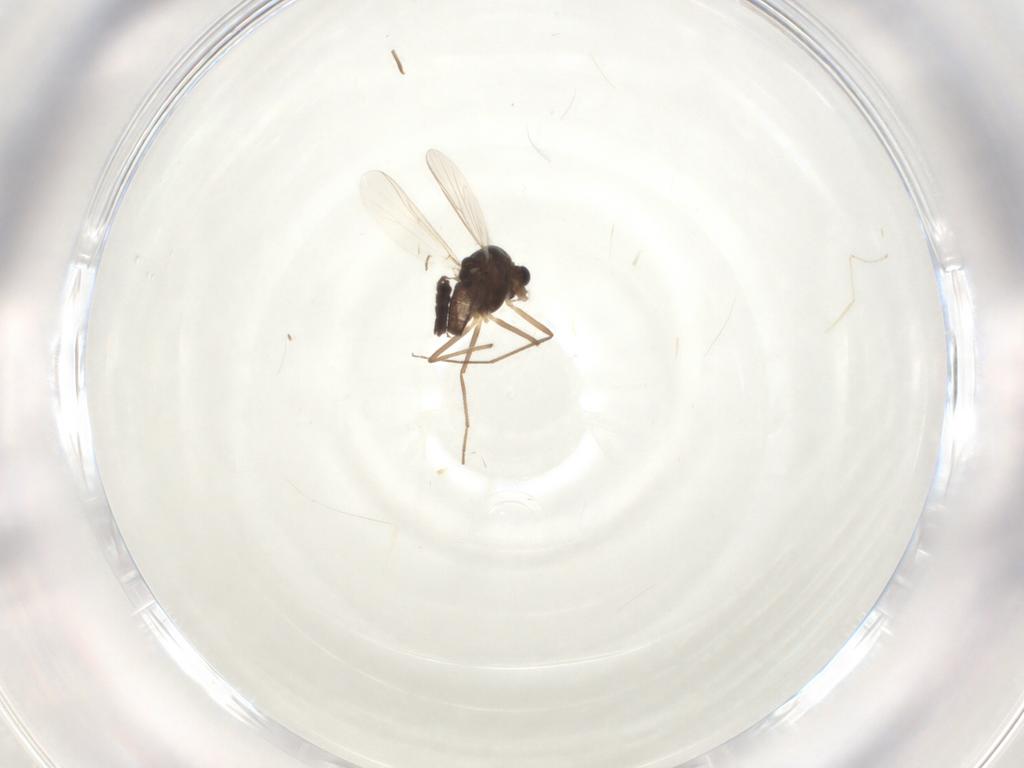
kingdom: Animalia
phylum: Arthropoda
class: Insecta
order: Diptera
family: Chironomidae
